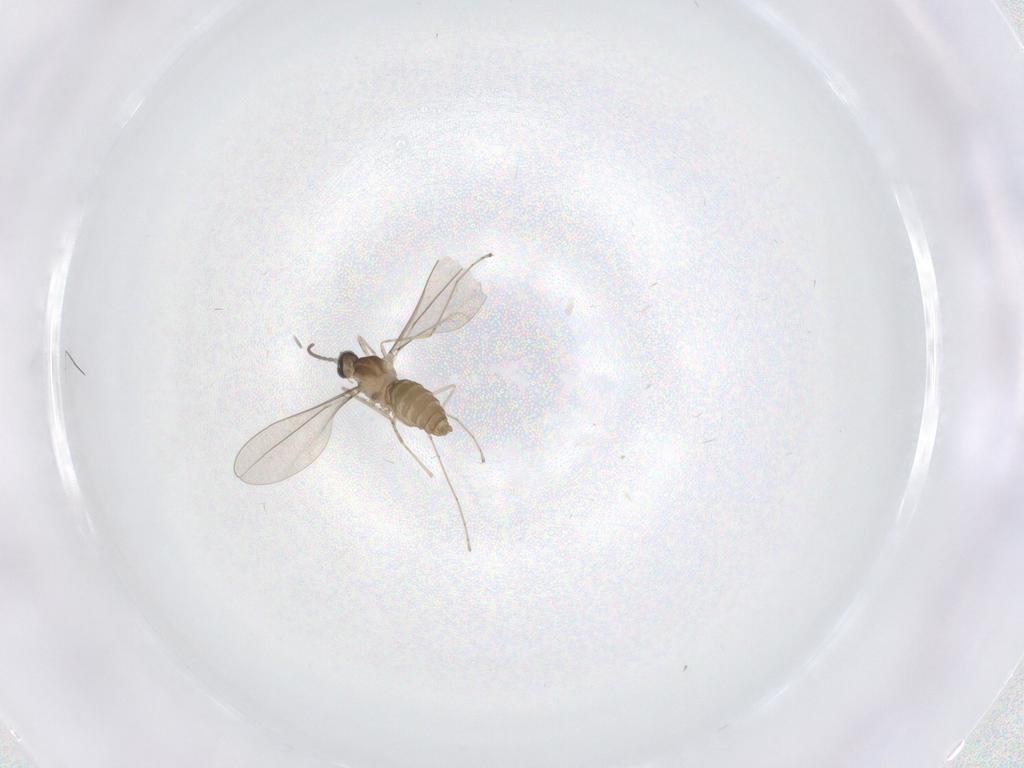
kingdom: Animalia
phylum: Arthropoda
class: Insecta
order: Diptera
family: Cecidomyiidae
